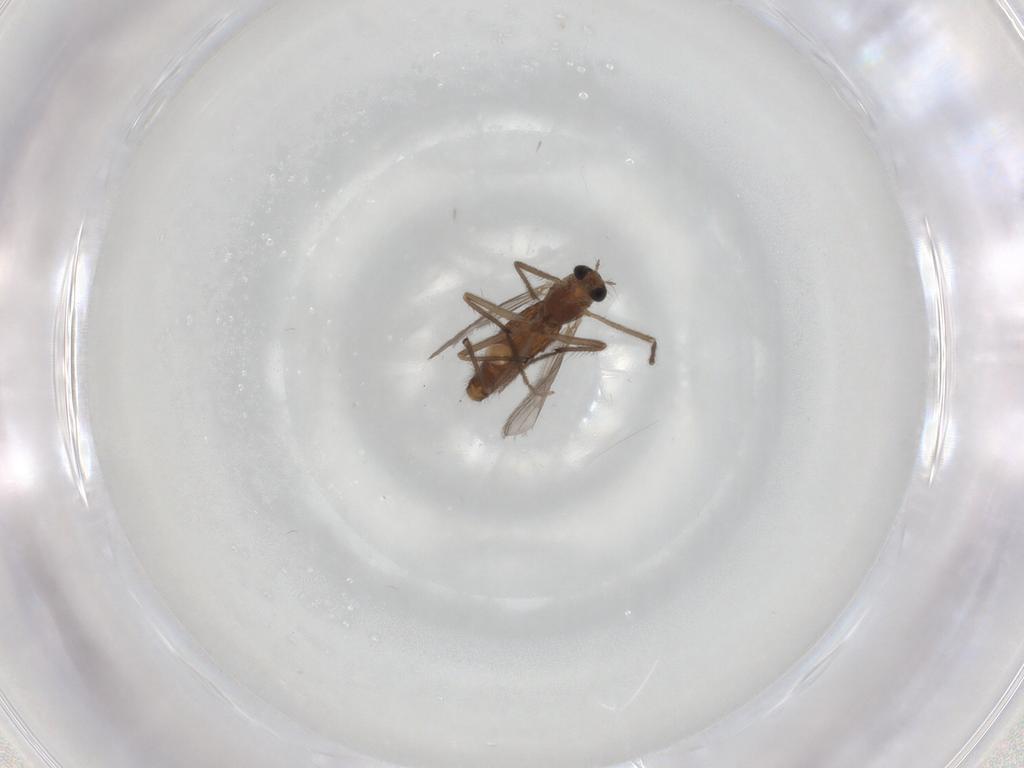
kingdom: Animalia
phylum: Arthropoda
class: Insecta
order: Diptera
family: Chironomidae
